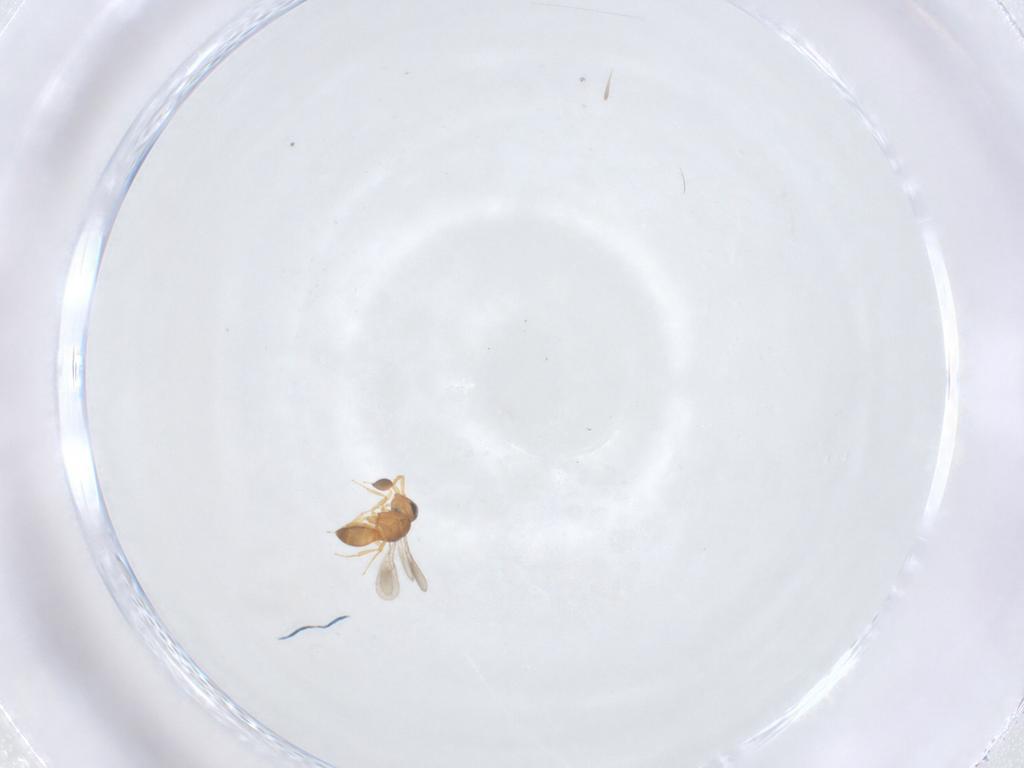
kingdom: Animalia
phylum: Arthropoda
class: Insecta
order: Hymenoptera
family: Scelionidae
